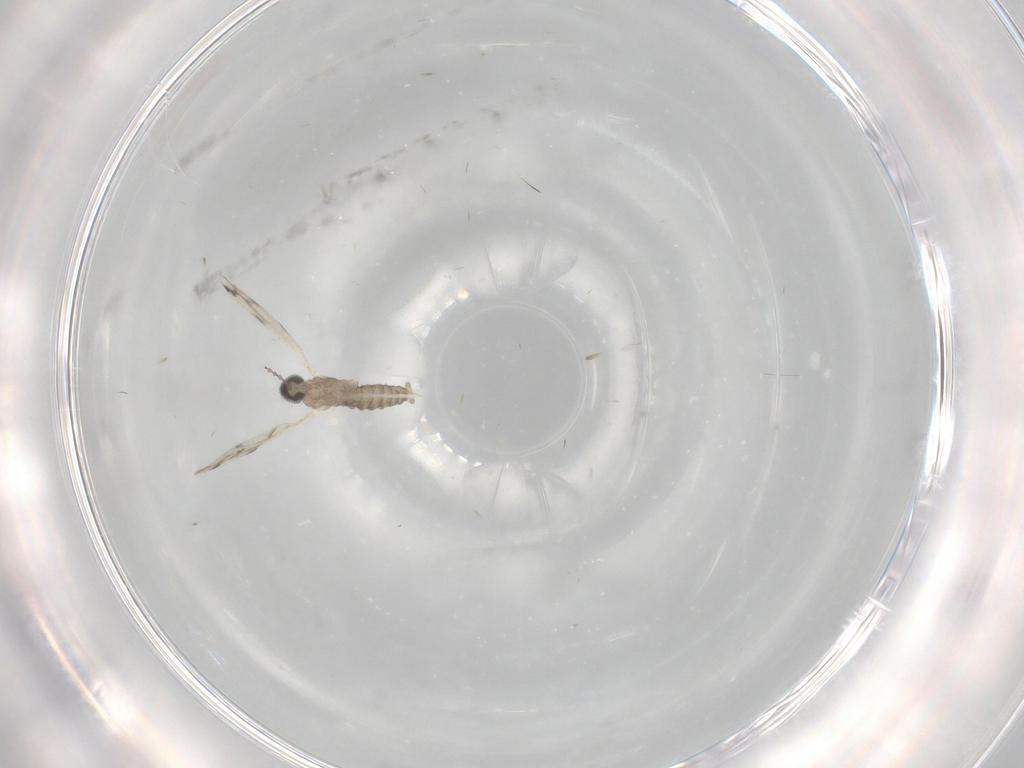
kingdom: Animalia
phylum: Arthropoda
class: Insecta
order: Diptera
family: Cecidomyiidae
